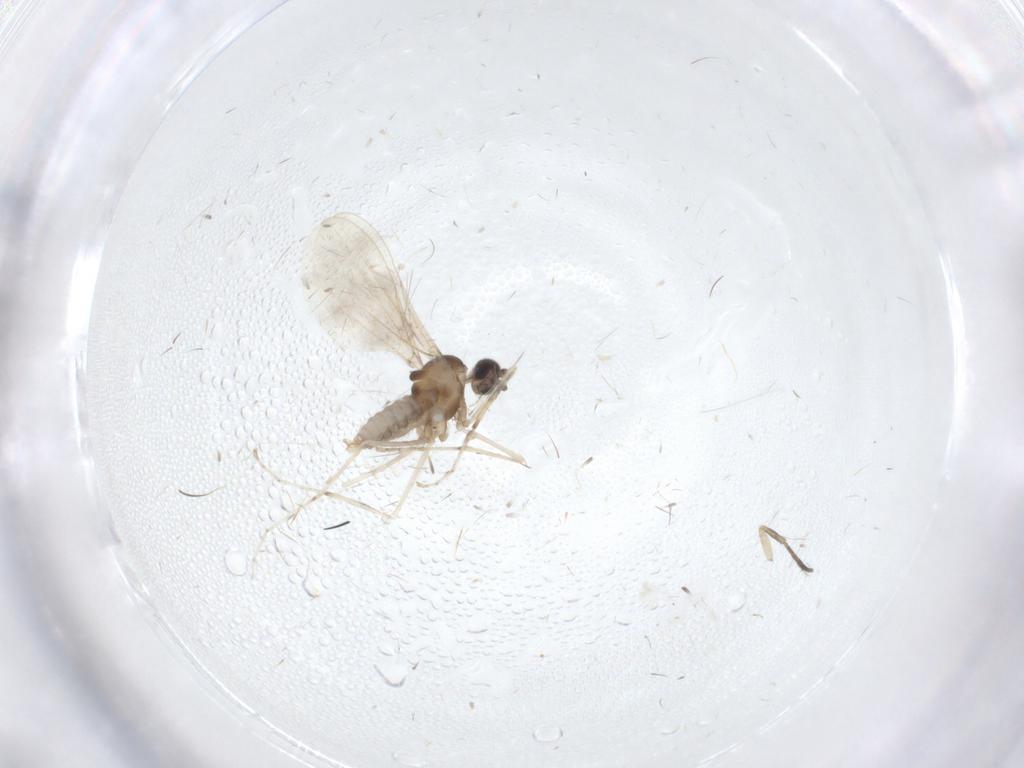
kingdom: Animalia
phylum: Arthropoda
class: Insecta
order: Diptera
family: Cecidomyiidae
